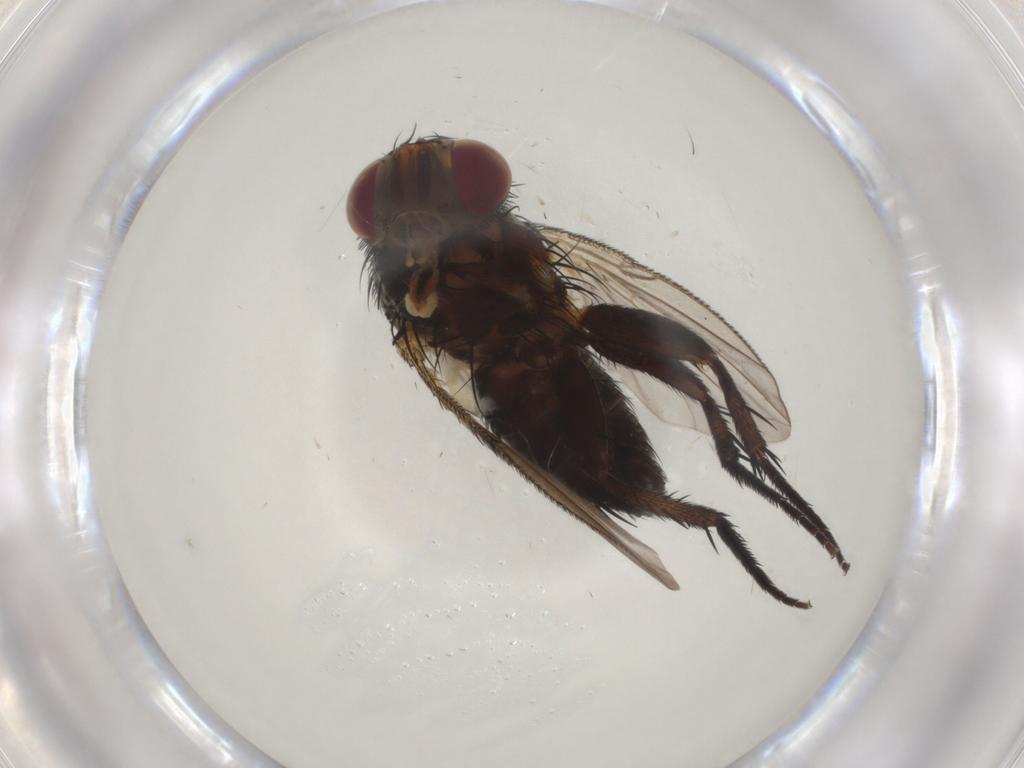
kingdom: Animalia
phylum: Arthropoda
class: Insecta
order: Diptera
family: Tachinidae
